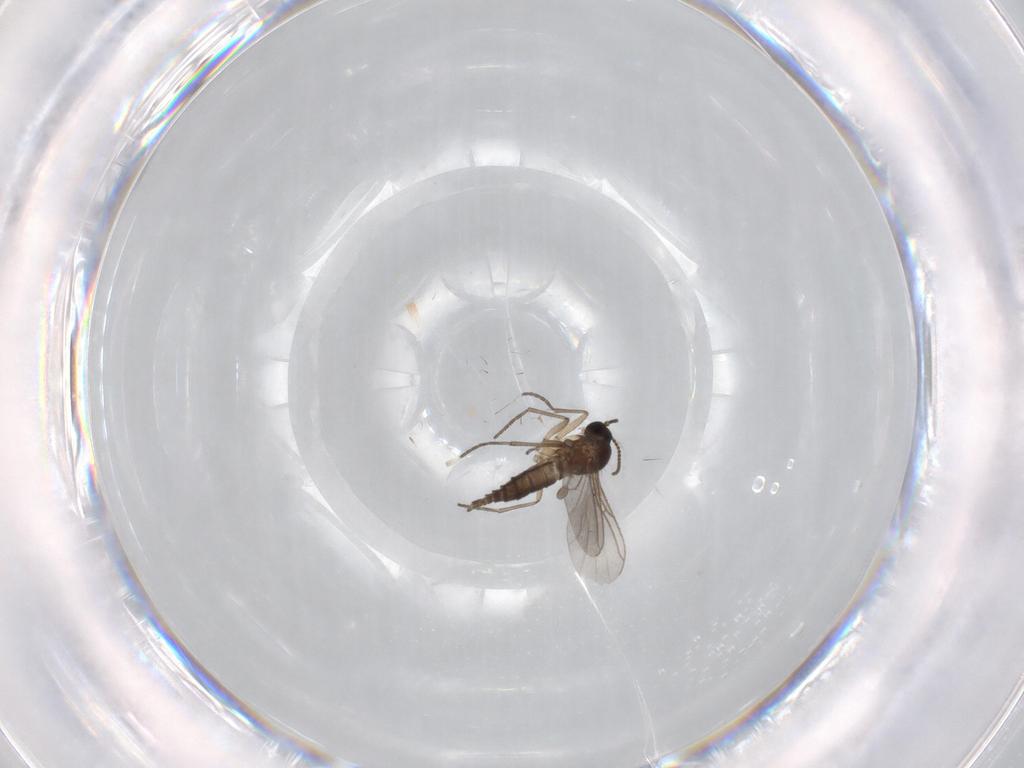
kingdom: Animalia
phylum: Arthropoda
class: Insecta
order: Diptera
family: Sciaridae
